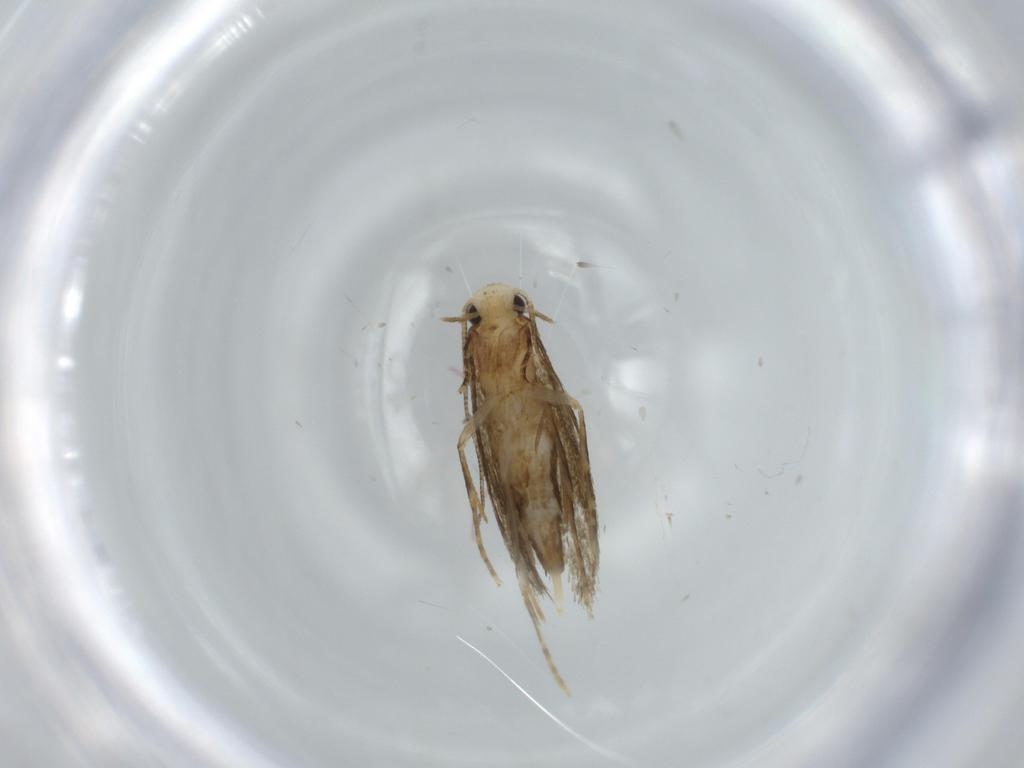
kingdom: Animalia
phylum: Arthropoda
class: Insecta
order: Lepidoptera
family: Tineidae
